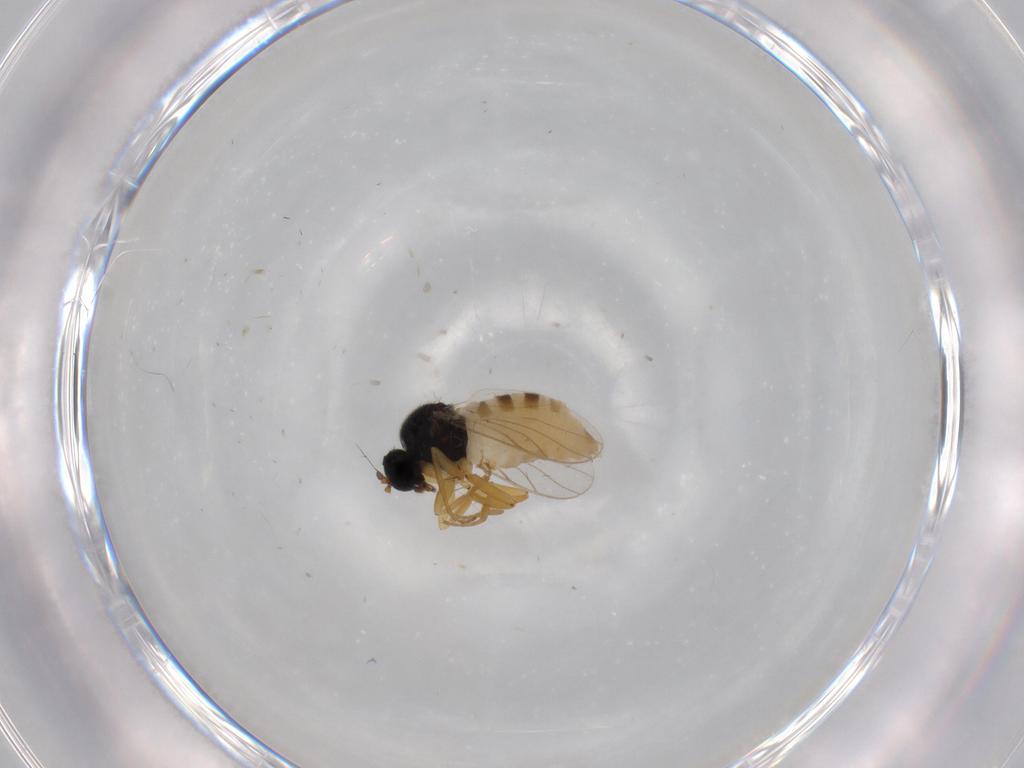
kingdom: Animalia
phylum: Arthropoda
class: Insecta
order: Diptera
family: Hybotidae
